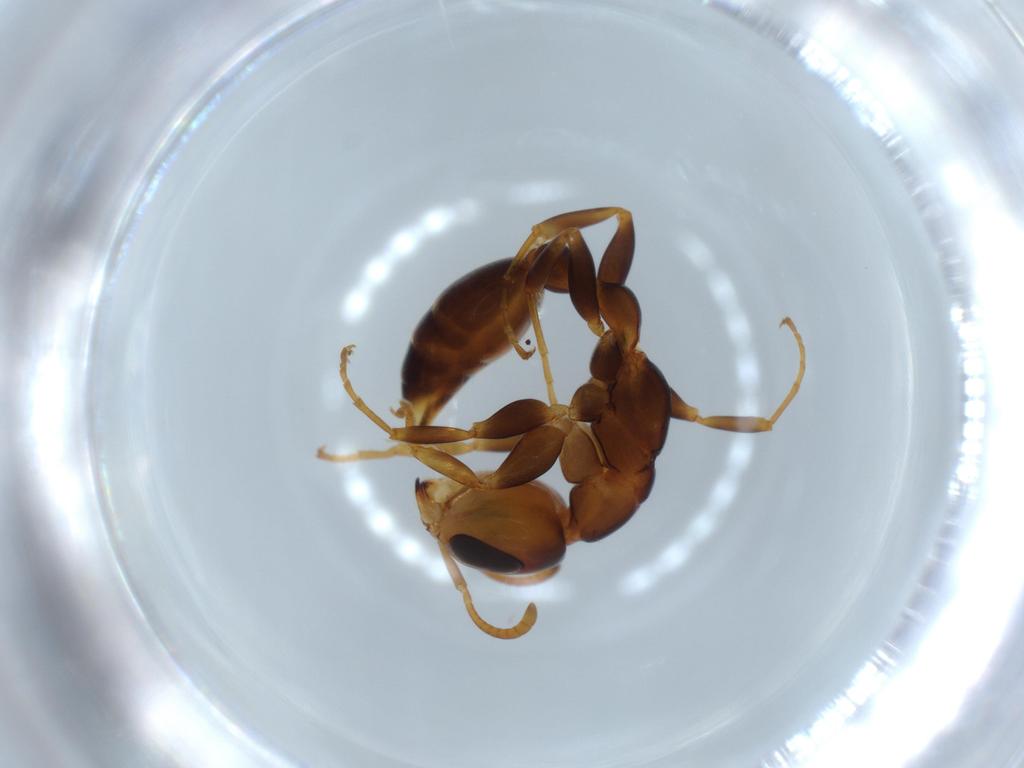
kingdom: Animalia
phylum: Arthropoda
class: Insecta
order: Hymenoptera
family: Formicidae
